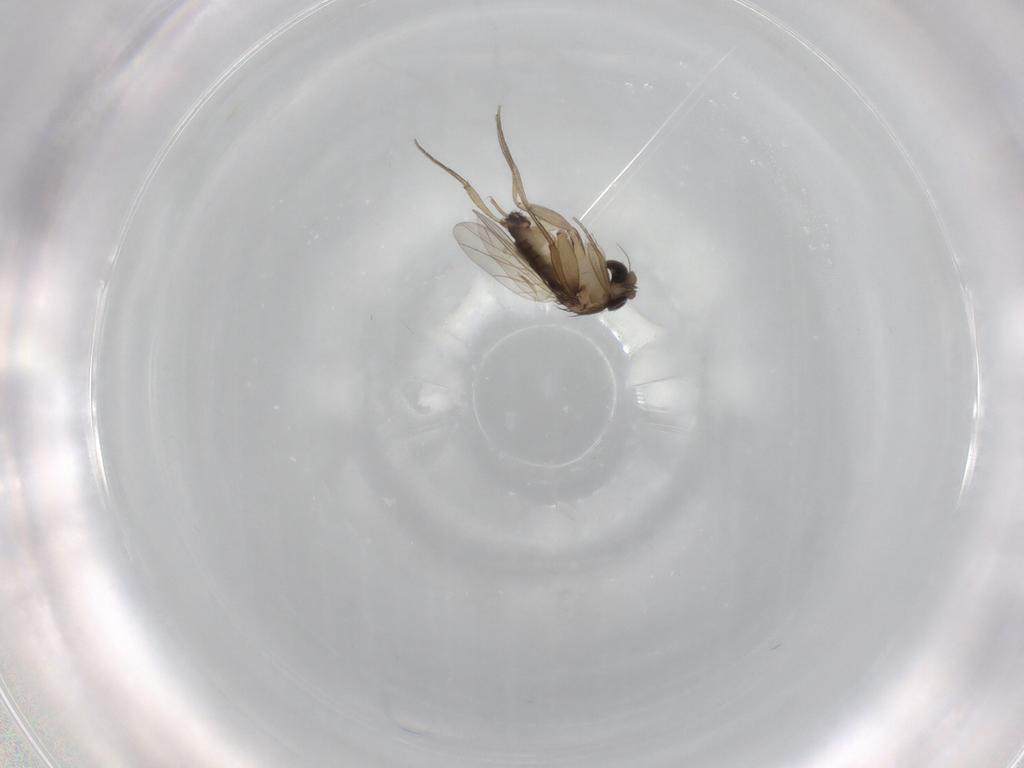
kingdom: Animalia
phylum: Arthropoda
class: Insecta
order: Diptera
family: Phoridae
